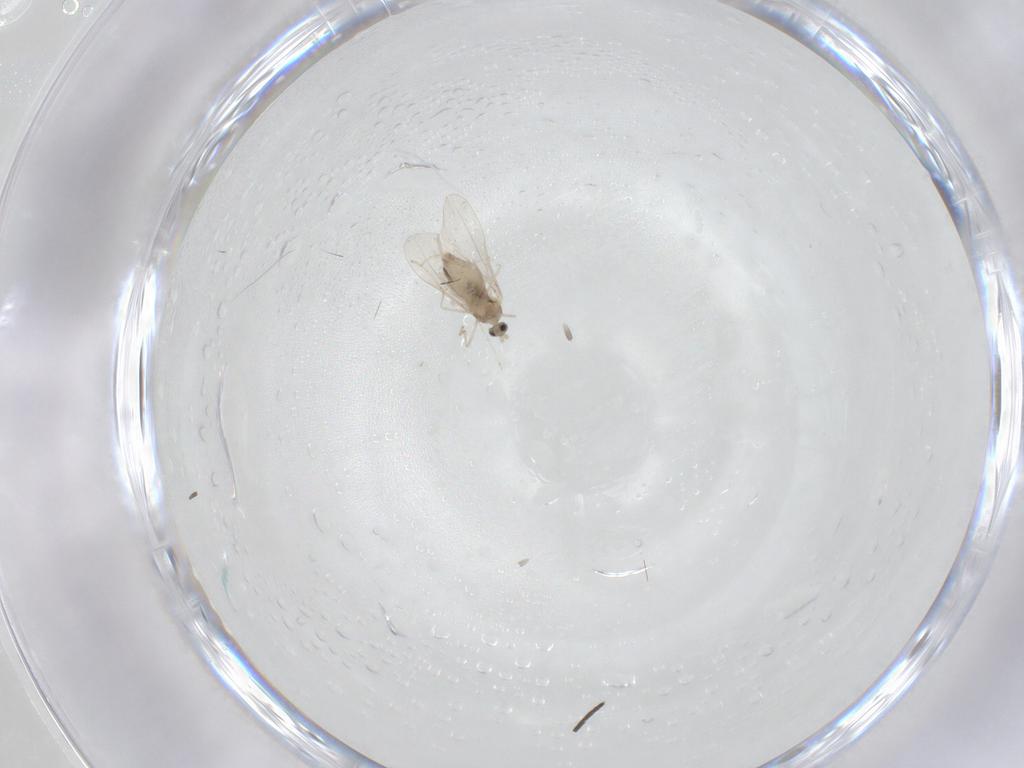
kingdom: Animalia
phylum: Arthropoda
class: Insecta
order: Diptera
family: Cecidomyiidae
